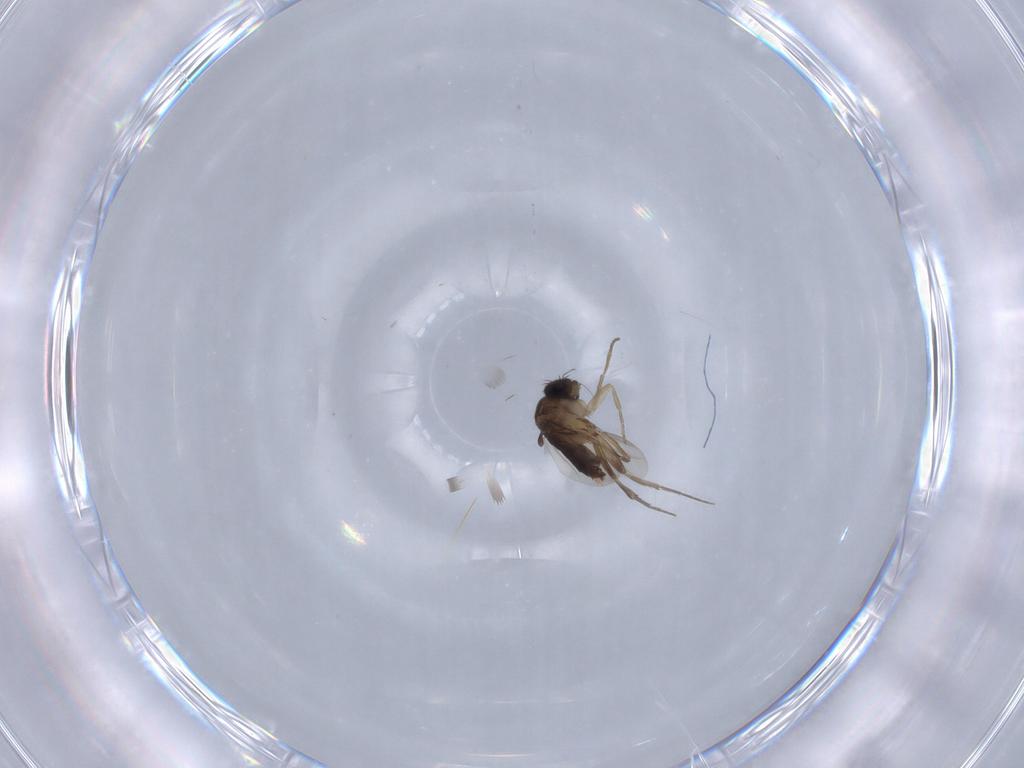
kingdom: Animalia
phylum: Arthropoda
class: Insecta
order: Diptera
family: Phoridae
